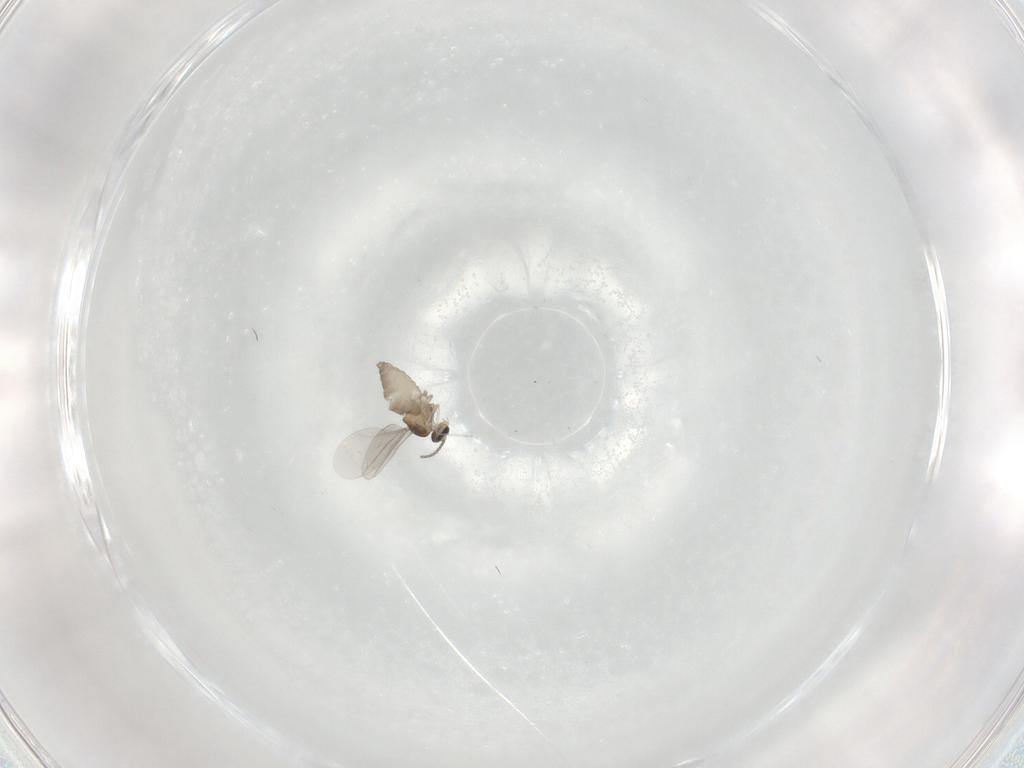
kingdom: Animalia
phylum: Arthropoda
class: Insecta
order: Diptera
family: Cecidomyiidae
